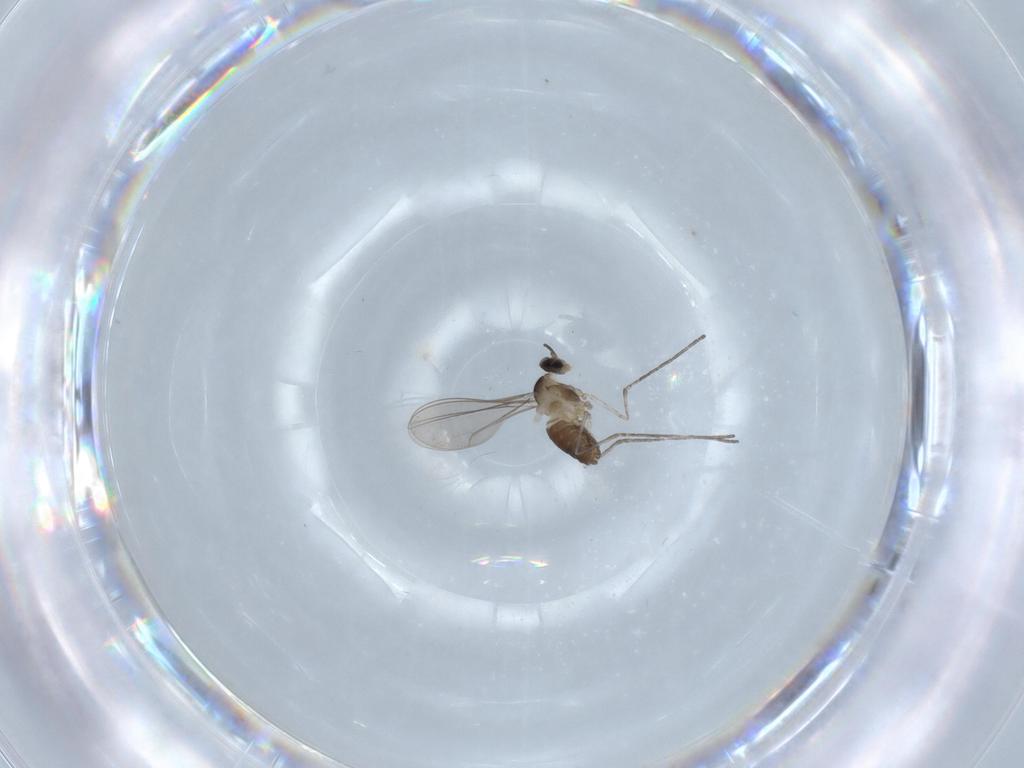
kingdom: Animalia
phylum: Arthropoda
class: Insecta
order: Diptera
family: Cecidomyiidae
